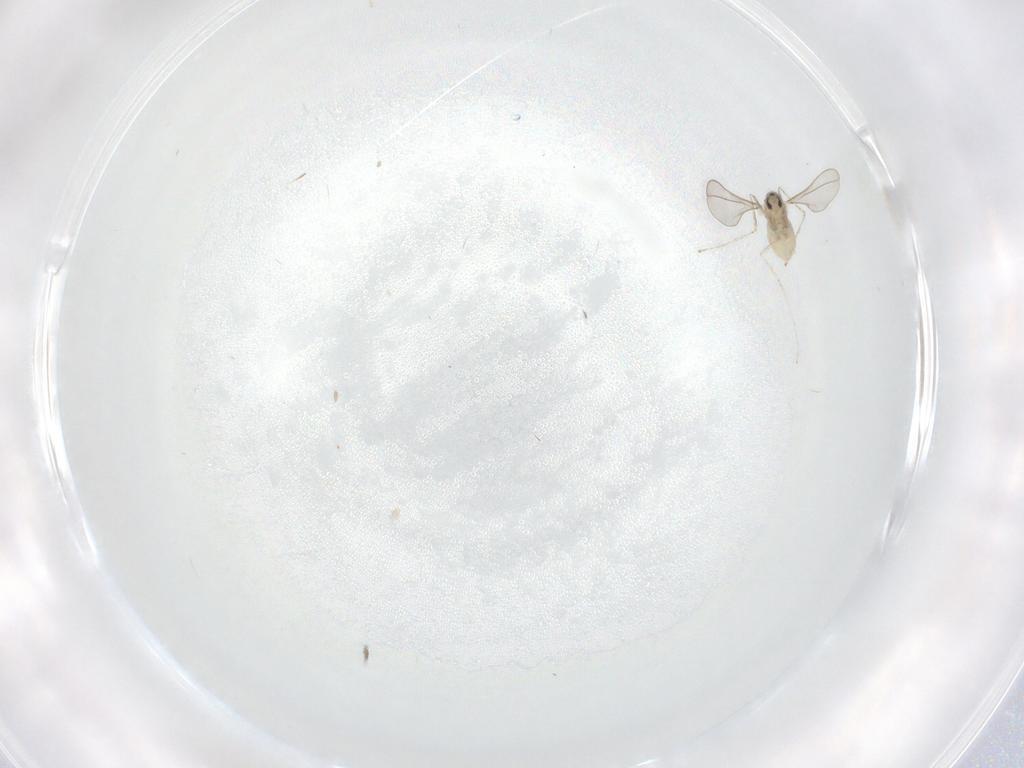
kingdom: Animalia
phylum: Arthropoda
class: Insecta
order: Diptera
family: Psychodidae
